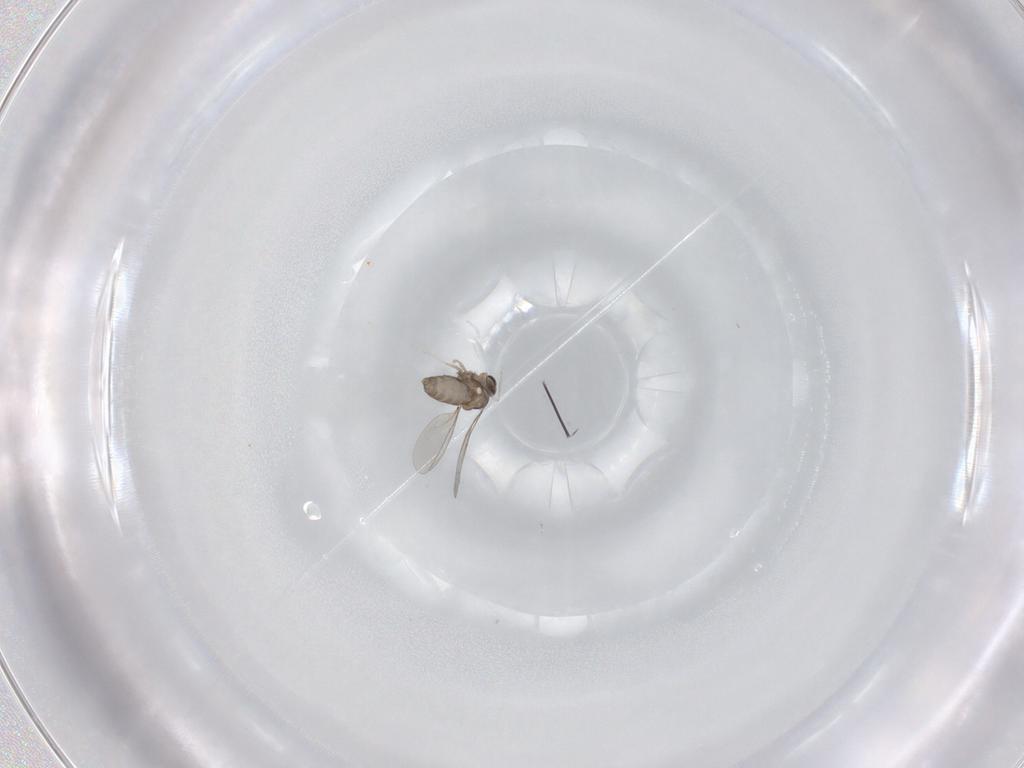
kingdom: Animalia
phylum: Arthropoda
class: Insecta
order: Diptera
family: Cecidomyiidae
